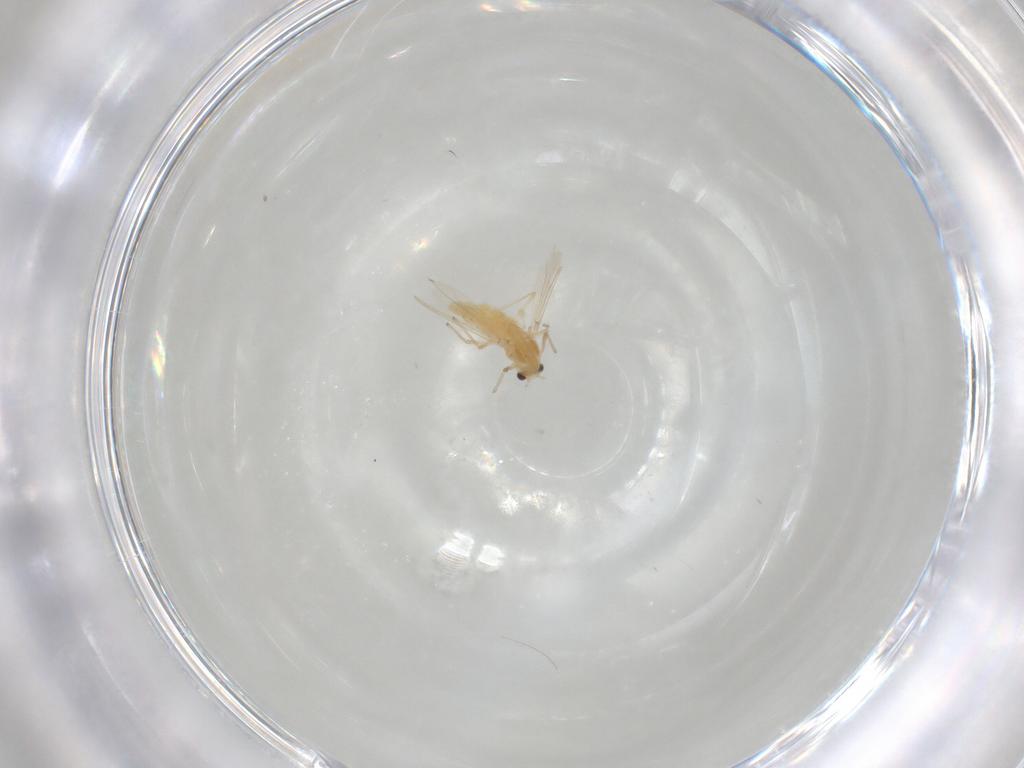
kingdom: Animalia
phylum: Arthropoda
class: Insecta
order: Diptera
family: Chironomidae
